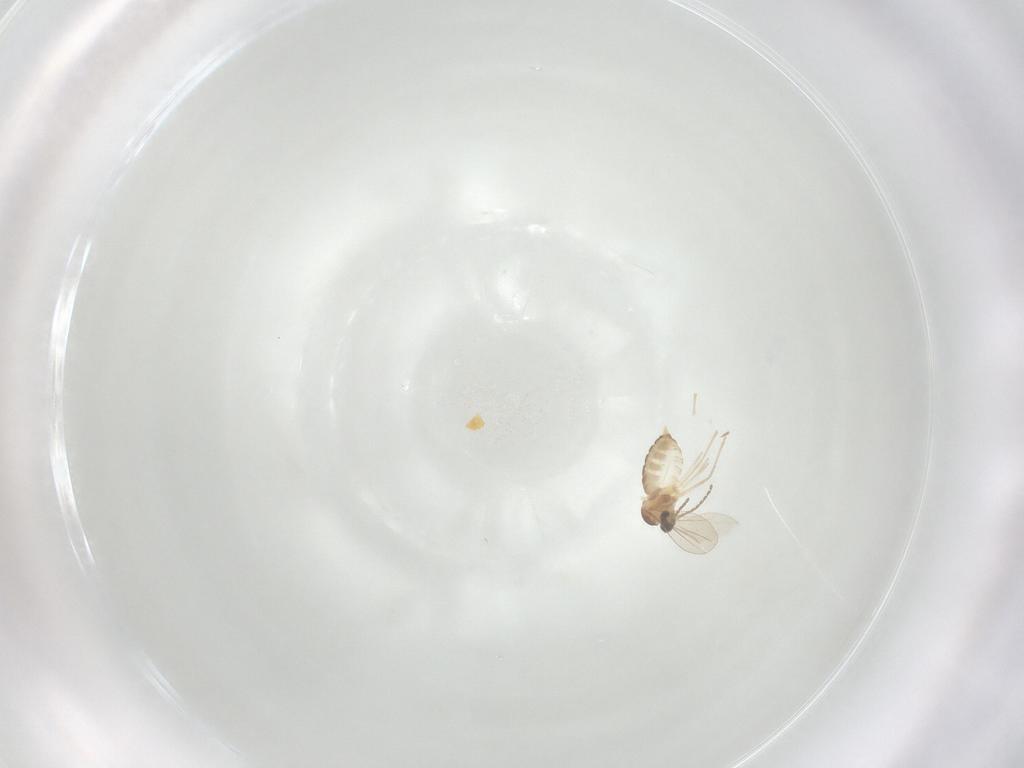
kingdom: Animalia
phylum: Arthropoda
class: Insecta
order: Diptera
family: Cecidomyiidae
